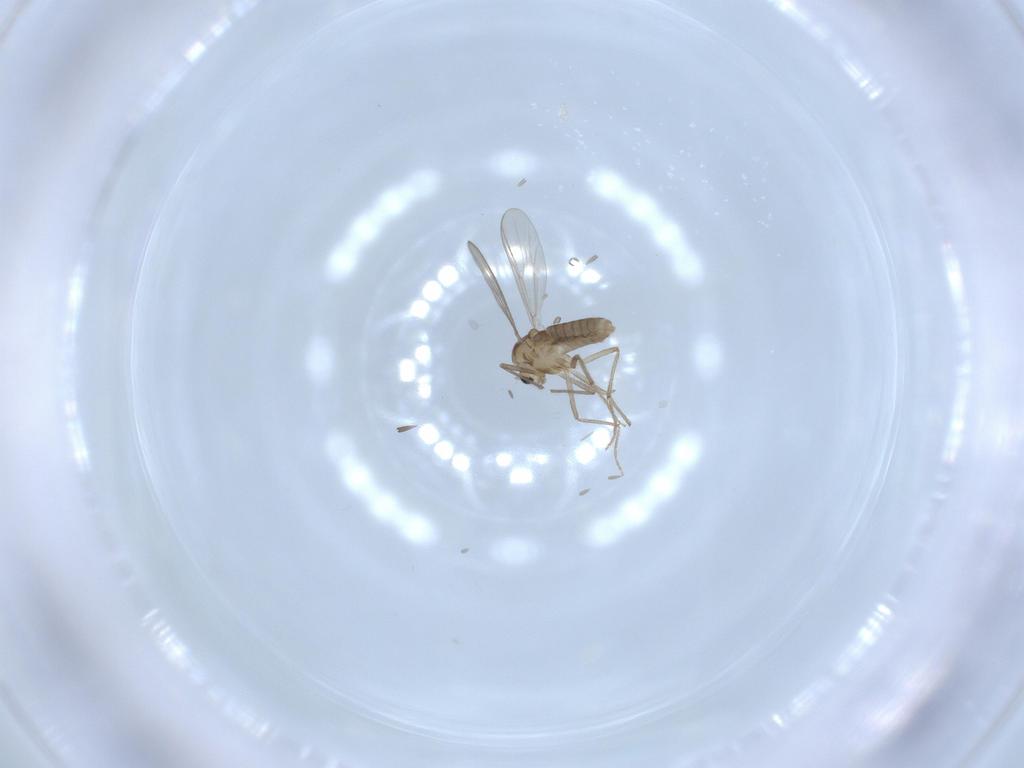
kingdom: Animalia
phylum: Arthropoda
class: Insecta
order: Diptera
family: Chironomidae
